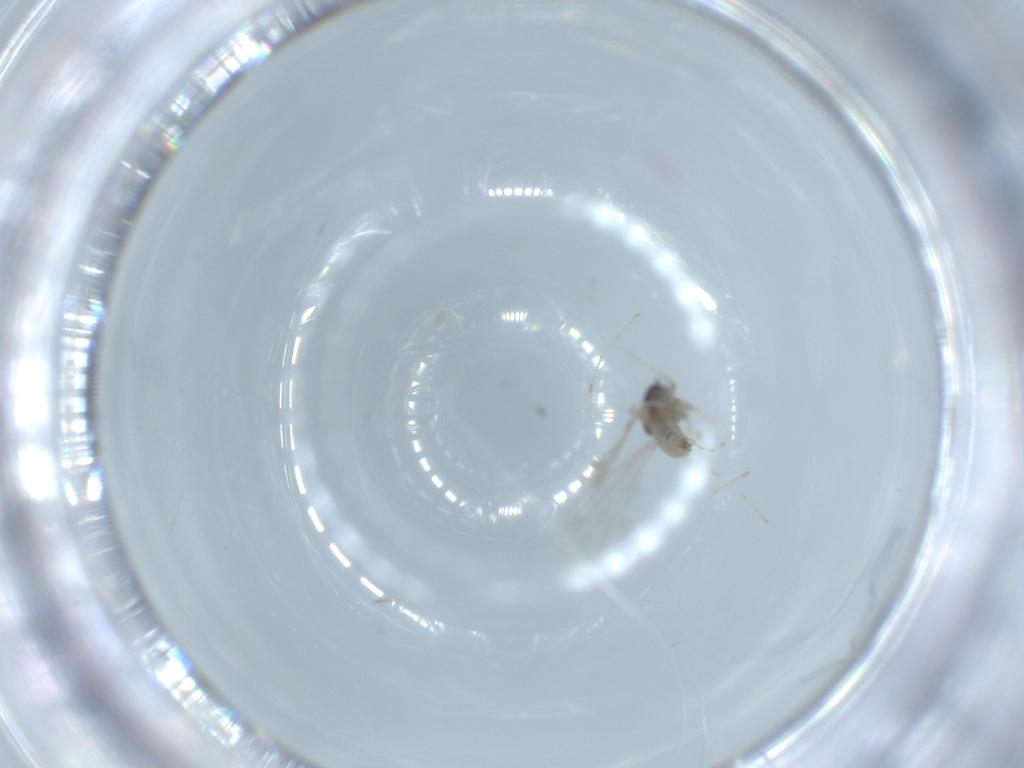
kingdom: Animalia
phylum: Arthropoda
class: Insecta
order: Diptera
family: Cecidomyiidae
